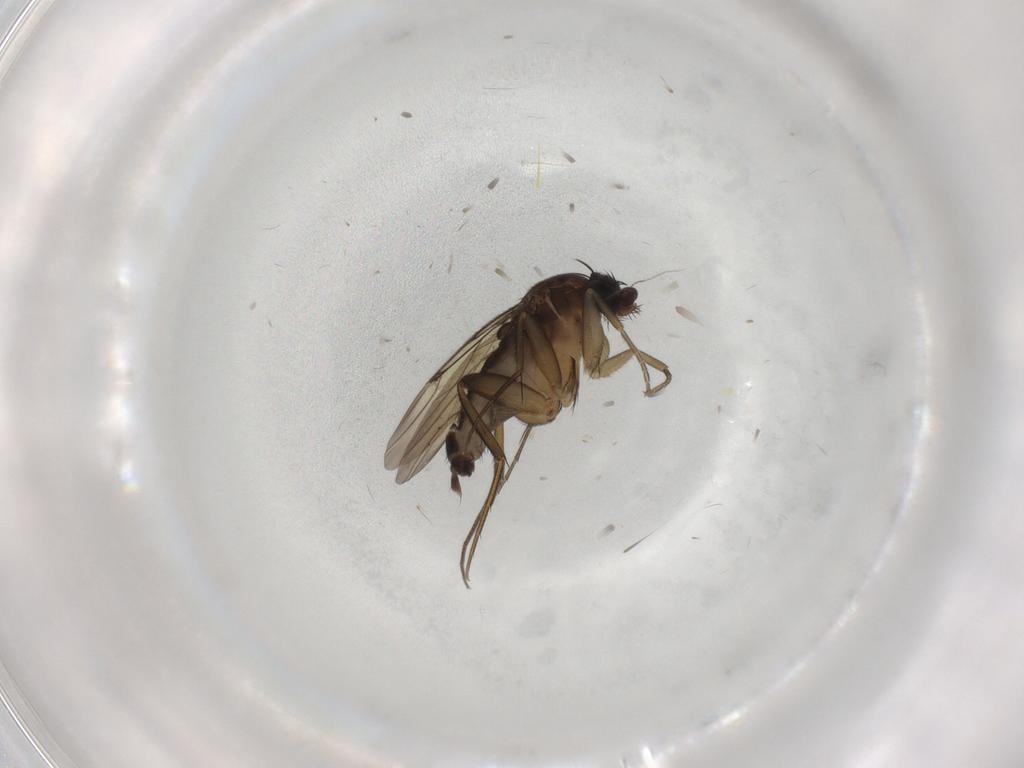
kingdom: Animalia
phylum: Arthropoda
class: Insecta
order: Diptera
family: Phoridae
